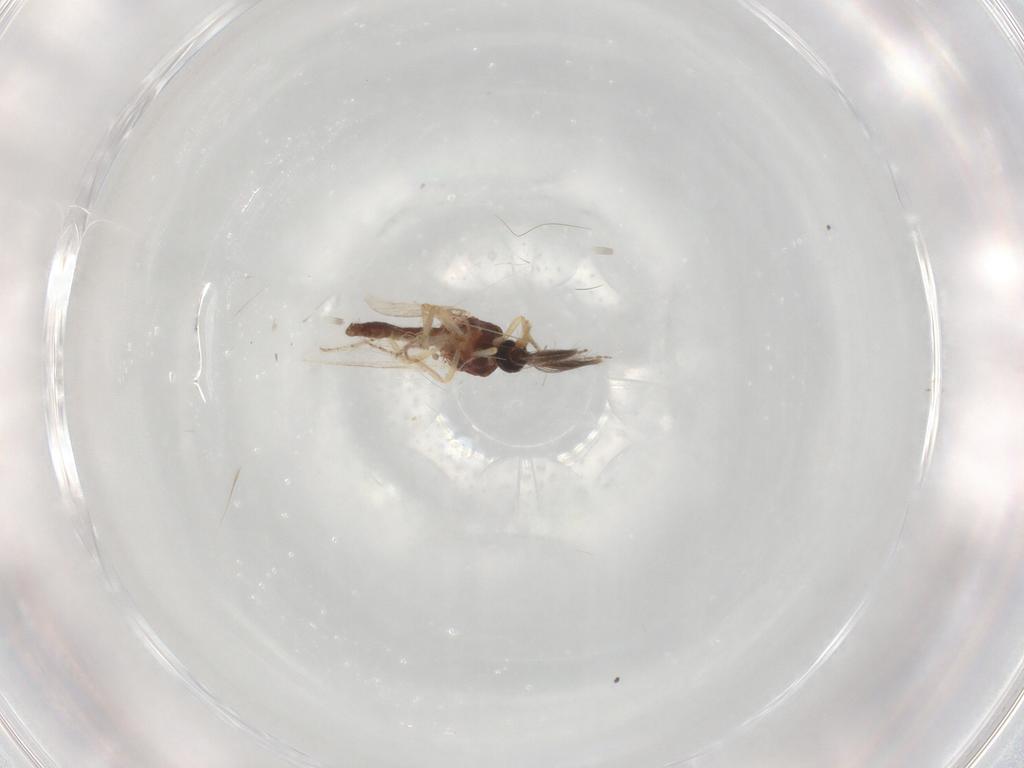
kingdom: Animalia
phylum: Arthropoda
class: Insecta
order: Diptera
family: Ceratopogonidae
